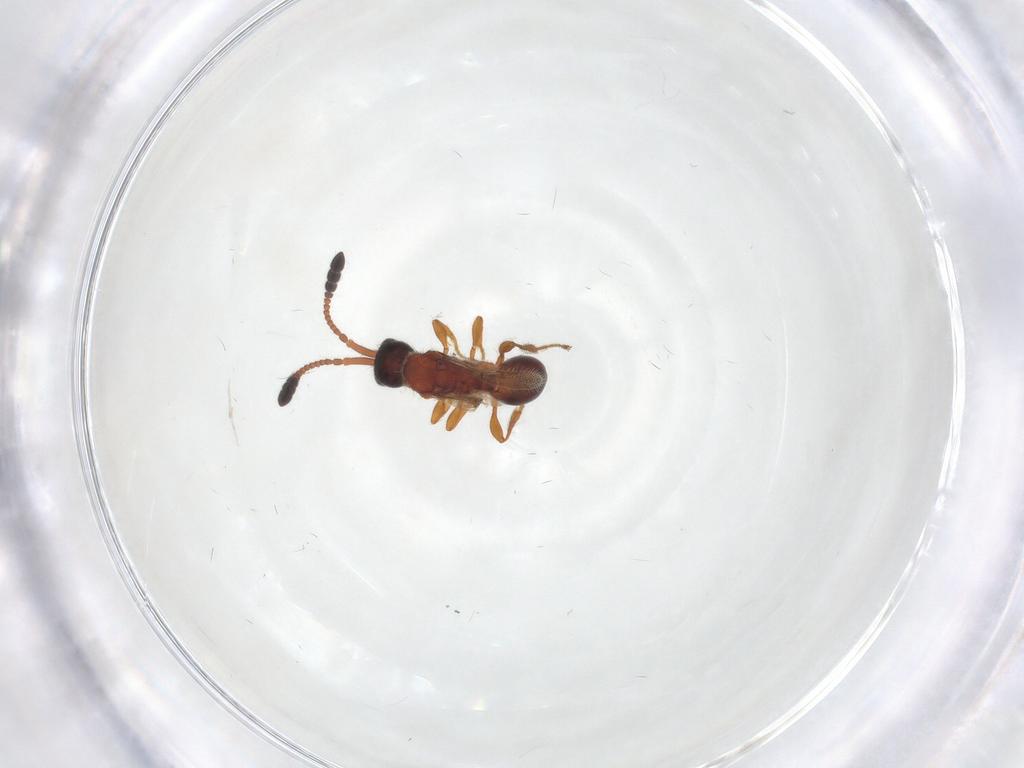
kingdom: Animalia
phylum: Arthropoda
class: Insecta
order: Hymenoptera
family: Diapriidae
